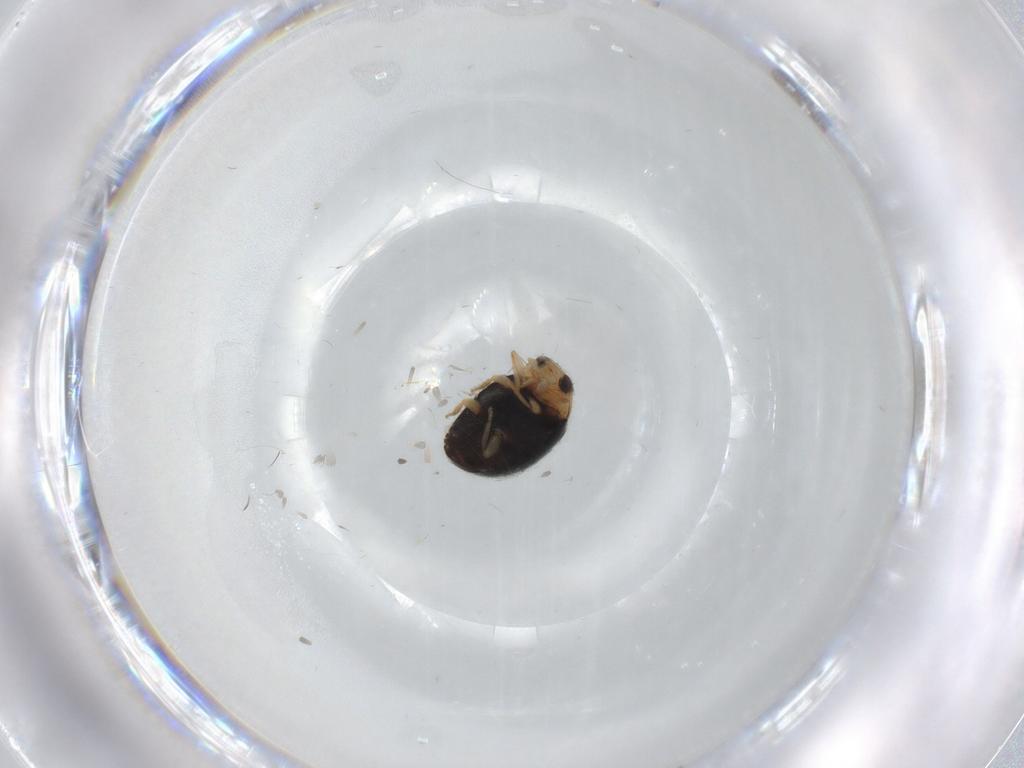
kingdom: Animalia
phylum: Arthropoda
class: Insecta
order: Coleoptera
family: Coccinellidae
